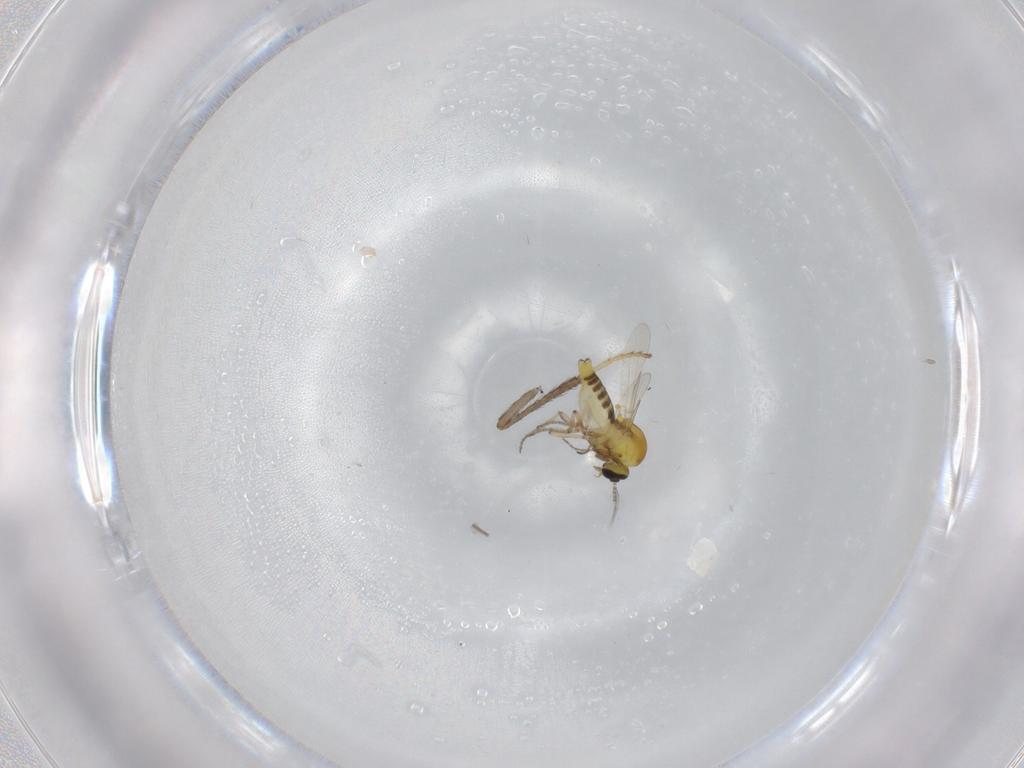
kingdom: Animalia
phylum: Arthropoda
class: Insecta
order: Diptera
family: Ceratopogonidae
